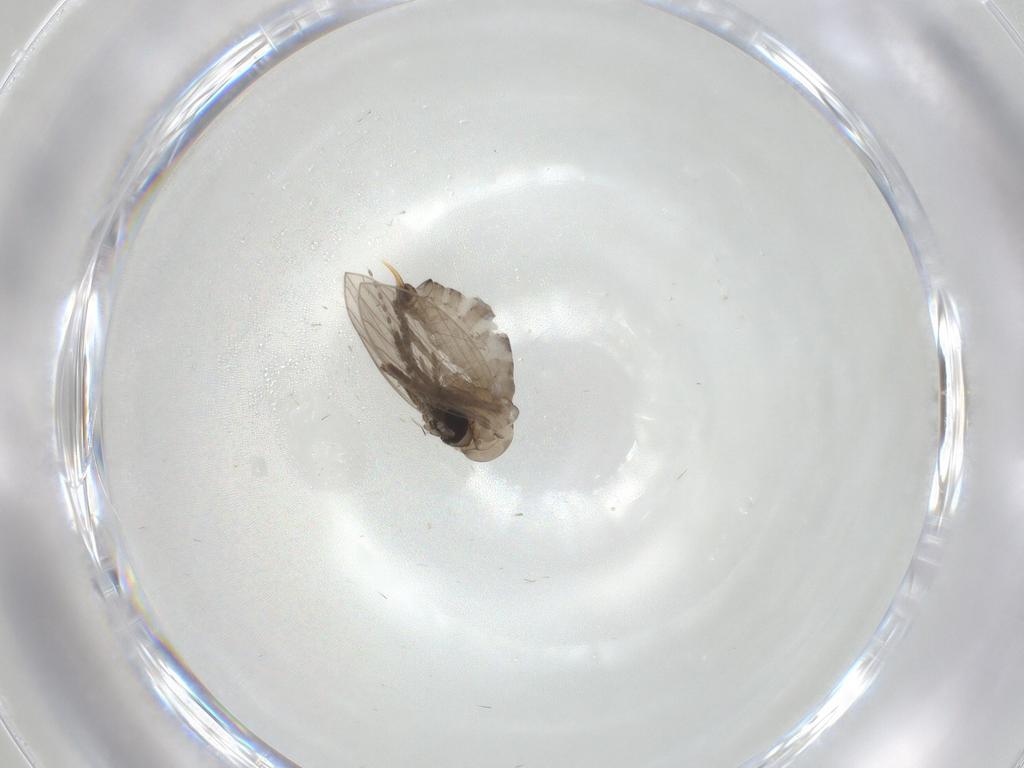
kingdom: Animalia
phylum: Arthropoda
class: Insecta
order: Diptera
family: Psychodidae
